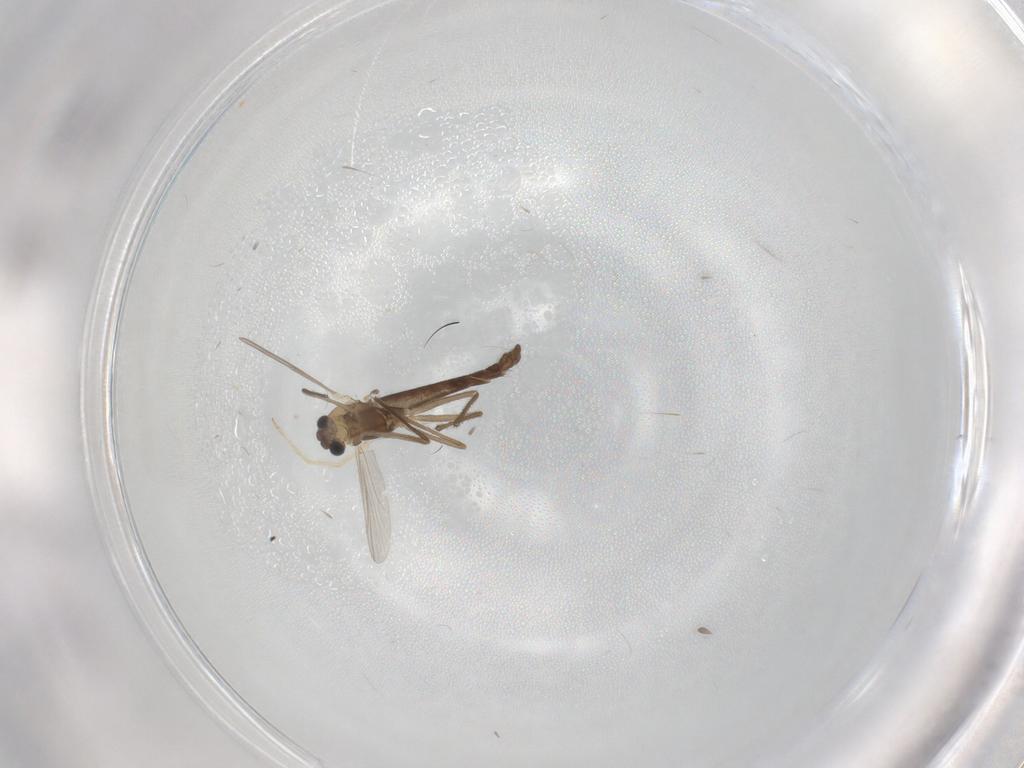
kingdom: Animalia
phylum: Arthropoda
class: Insecta
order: Diptera
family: Chironomidae
